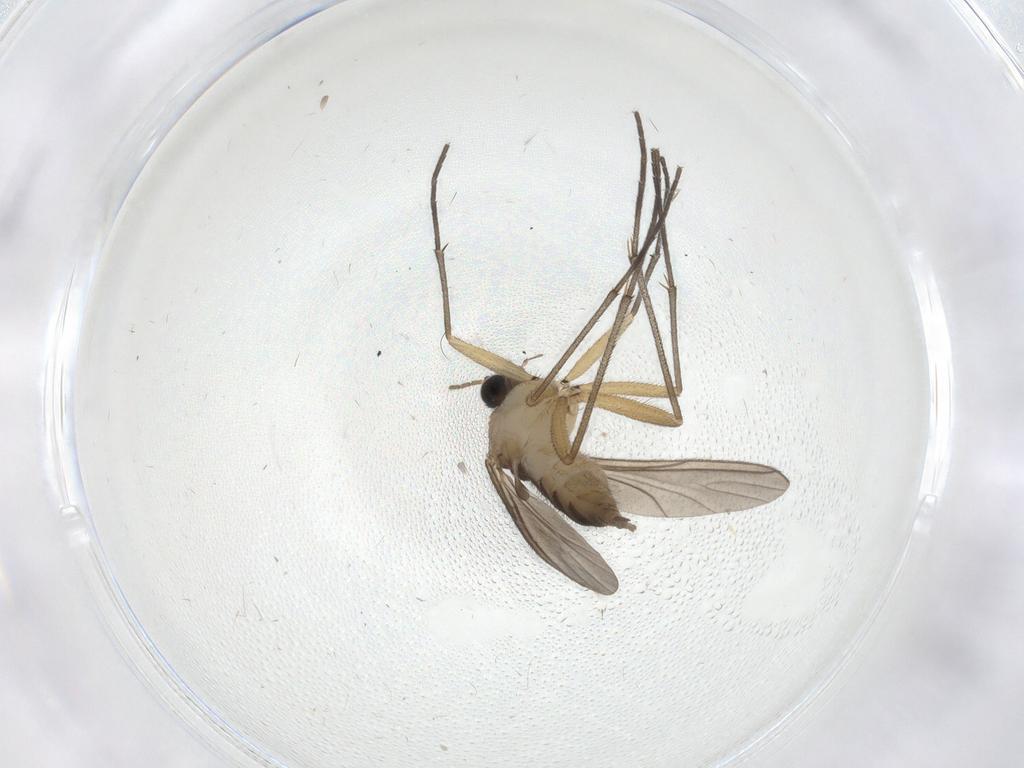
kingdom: Animalia
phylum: Arthropoda
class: Insecta
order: Diptera
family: Sciaridae
